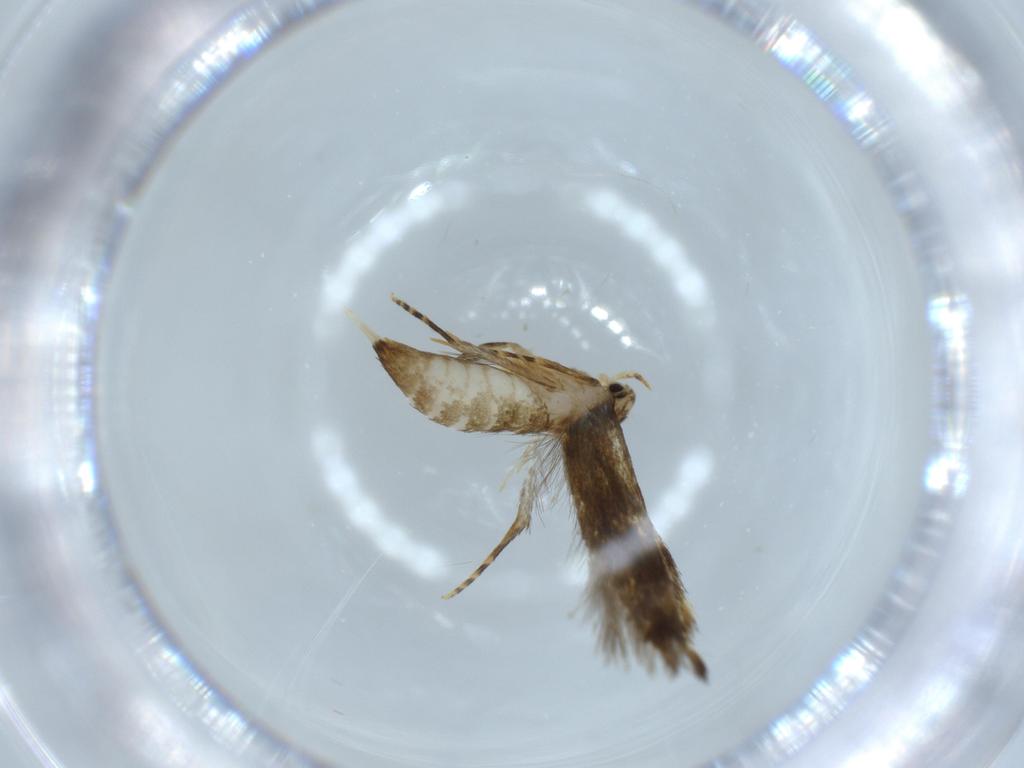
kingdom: Animalia
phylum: Arthropoda
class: Insecta
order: Lepidoptera
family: Tineidae
